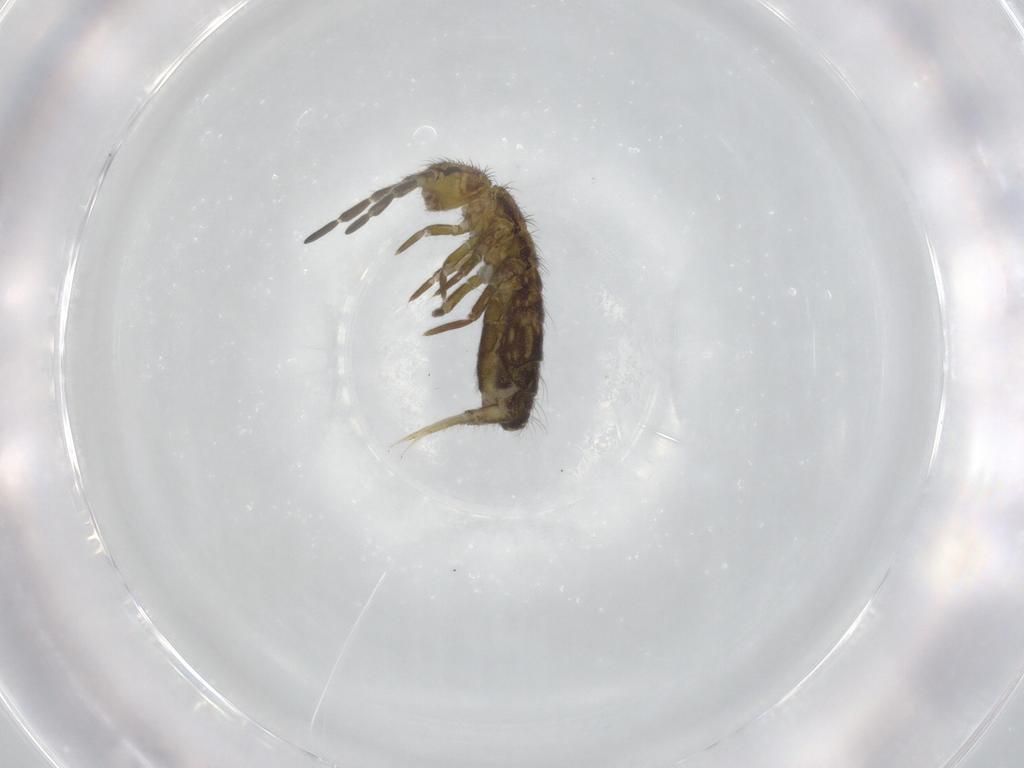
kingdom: Animalia
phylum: Arthropoda
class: Collembola
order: Entomobryomorpha
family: Isotomidae
